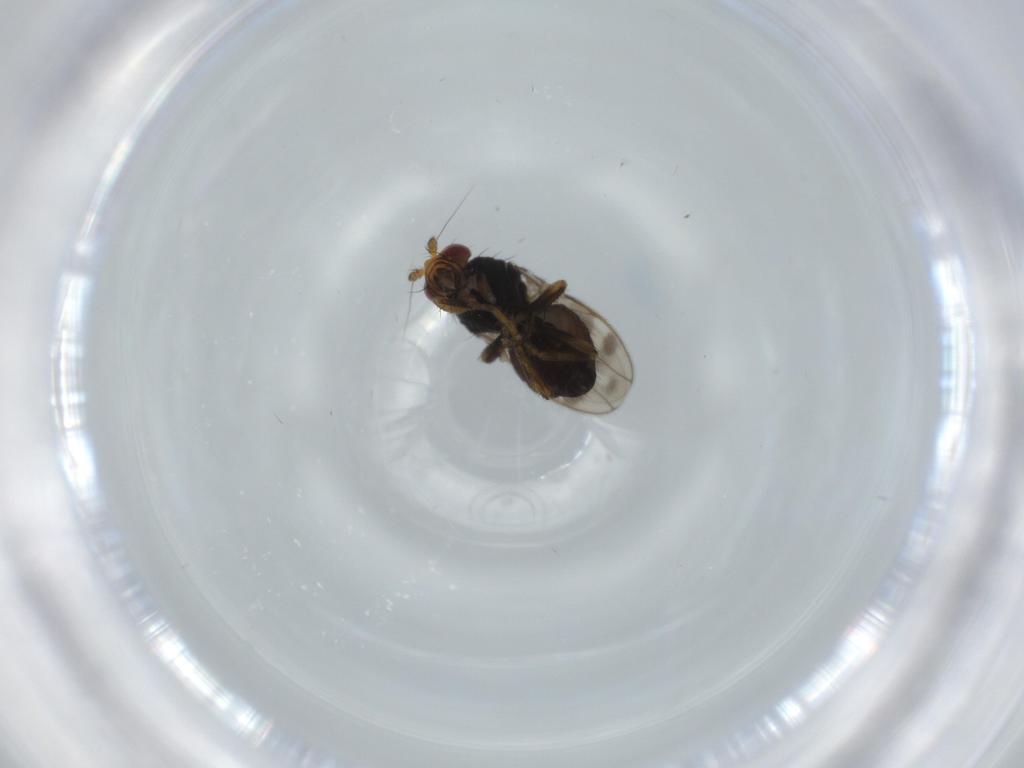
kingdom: Animalia
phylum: Arthropoda
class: Insecta
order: Diptera
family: Sphaeroceridae
